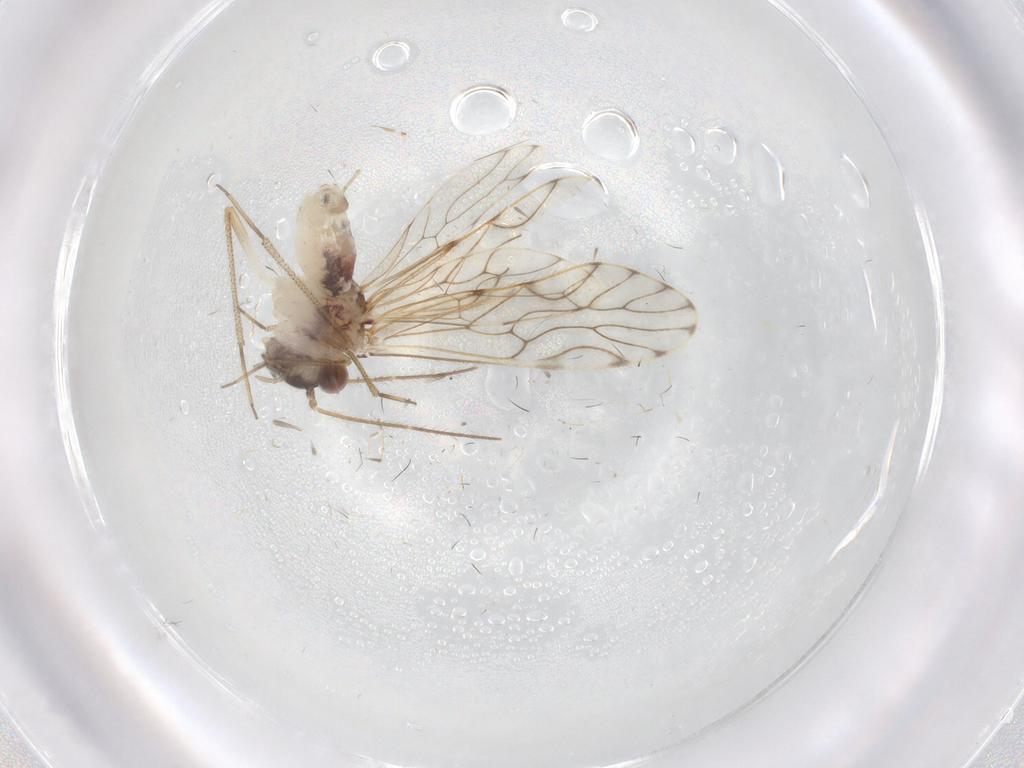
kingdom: Animalia
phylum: Arthropoda
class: Insecta
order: Psocodea
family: Epipsocidae
